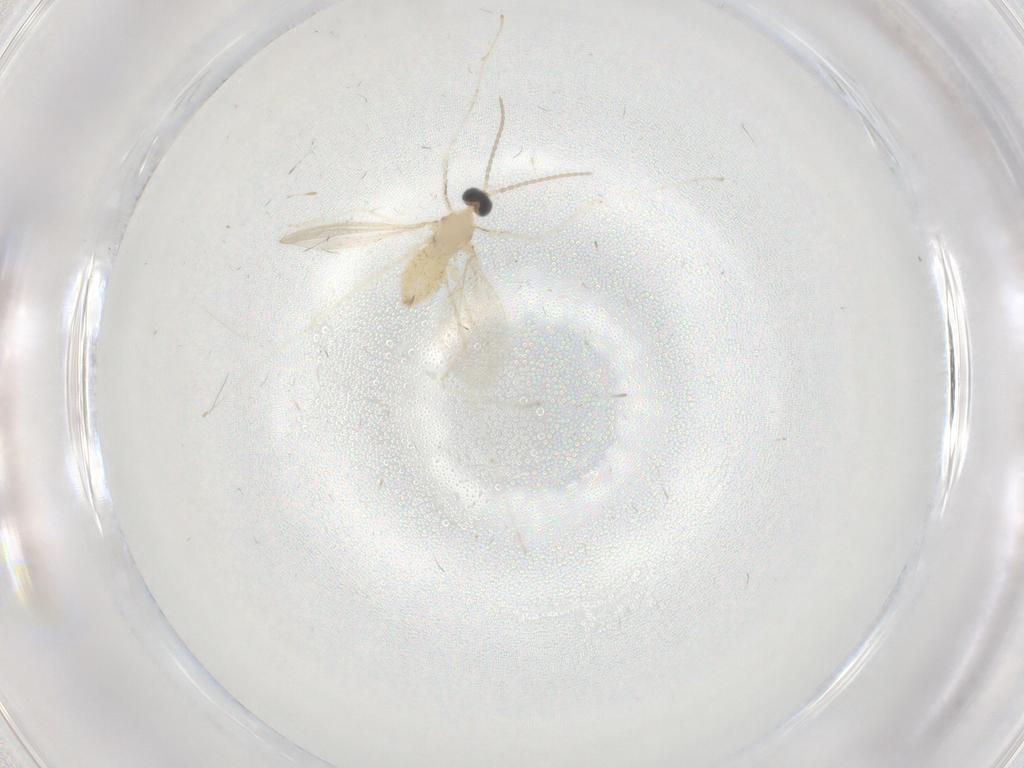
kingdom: Animalia
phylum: Arthropoda
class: Insecta
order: Diptera
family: Cecidomyiidae
